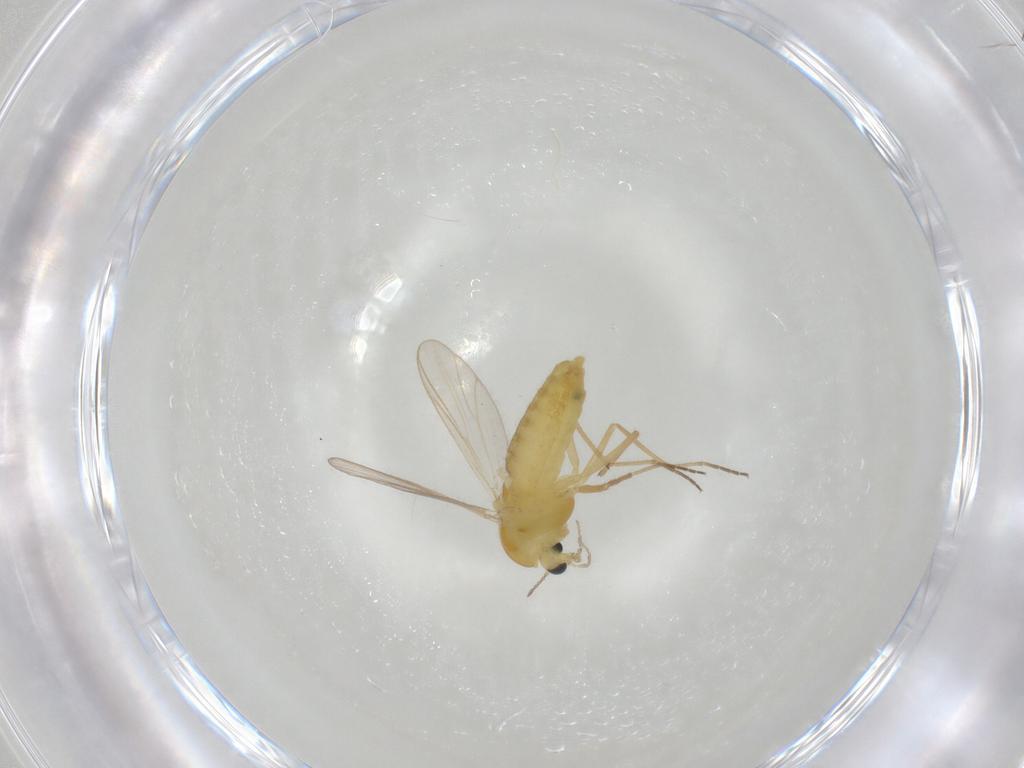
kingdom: Animalia
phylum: Arthropoda
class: Insecta
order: Diptera
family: Chironomidae
